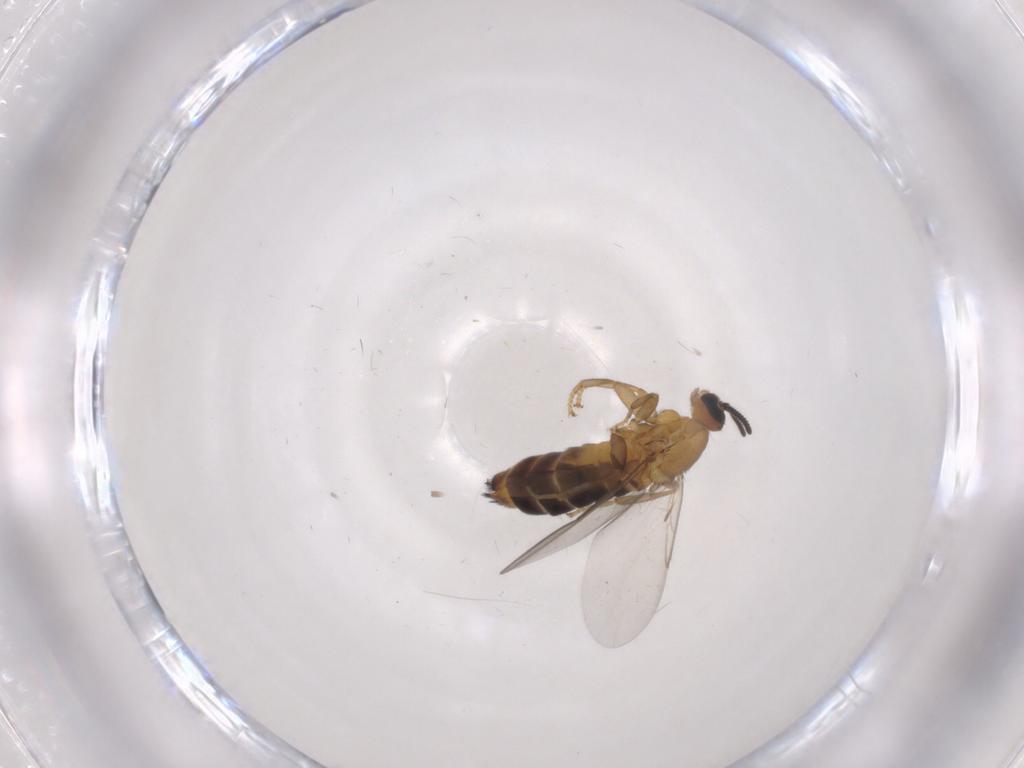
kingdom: Animalia
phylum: Arthropoda
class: Insecta
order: Diptera
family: Scatopsidae
